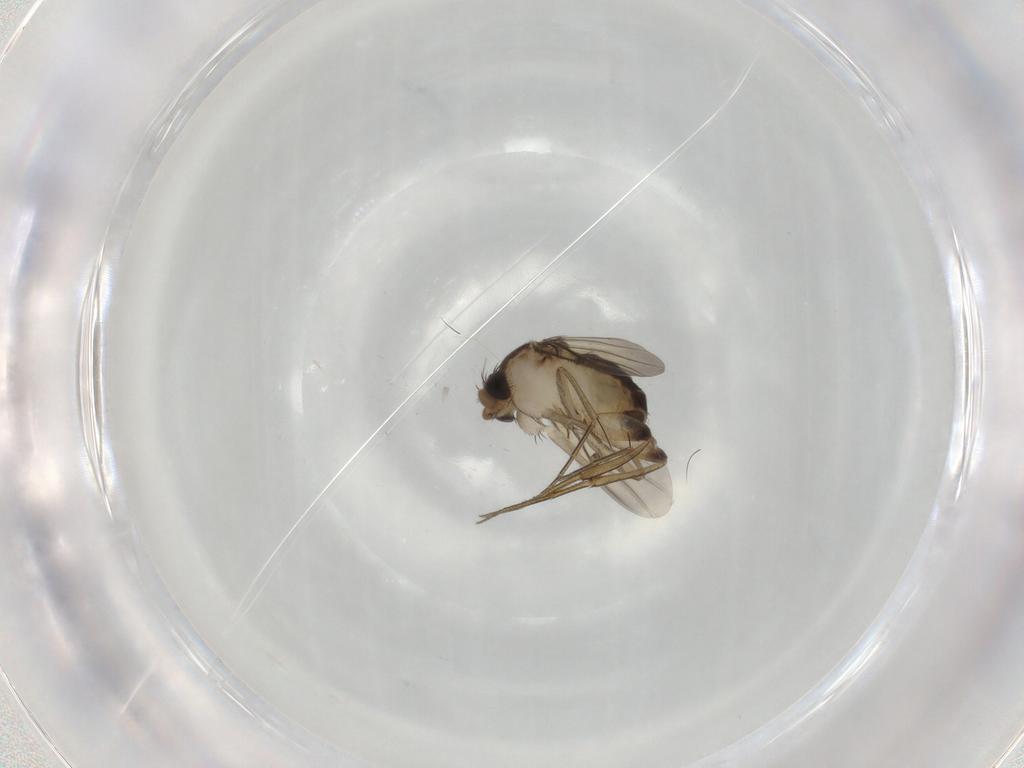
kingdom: Animalia
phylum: Arthropoda
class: Insecta
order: Diptera
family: Phoridae
